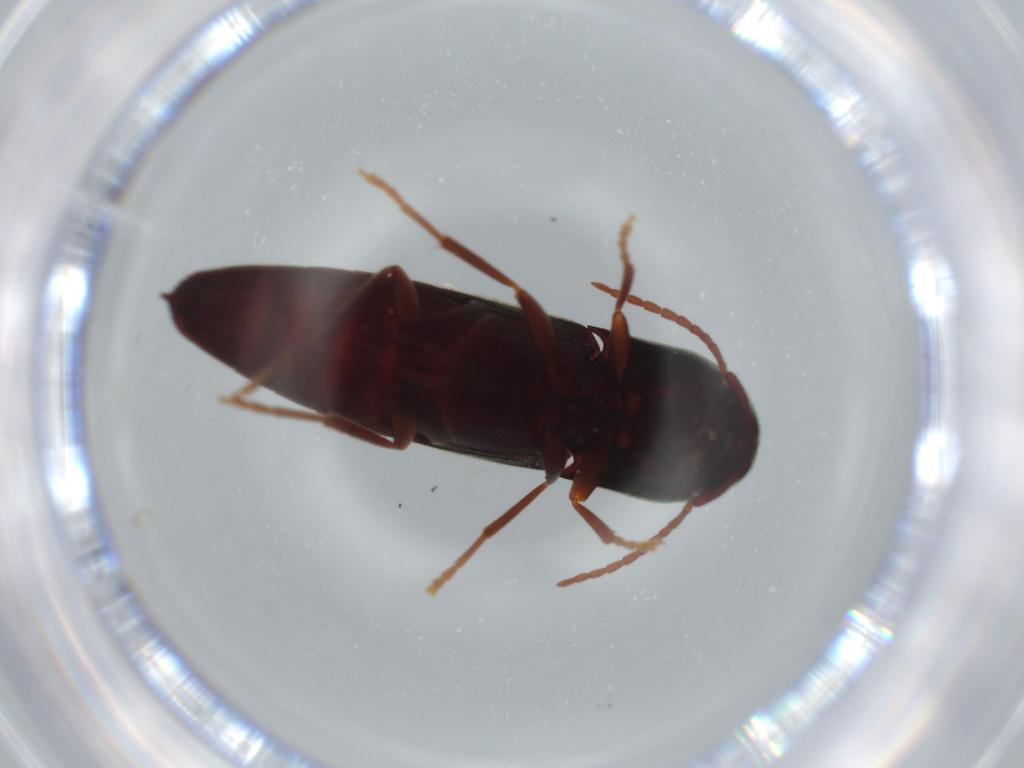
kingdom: Animalia
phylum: Arthropoda
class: Insecta
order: Coleoptera
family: Eucnemidae
